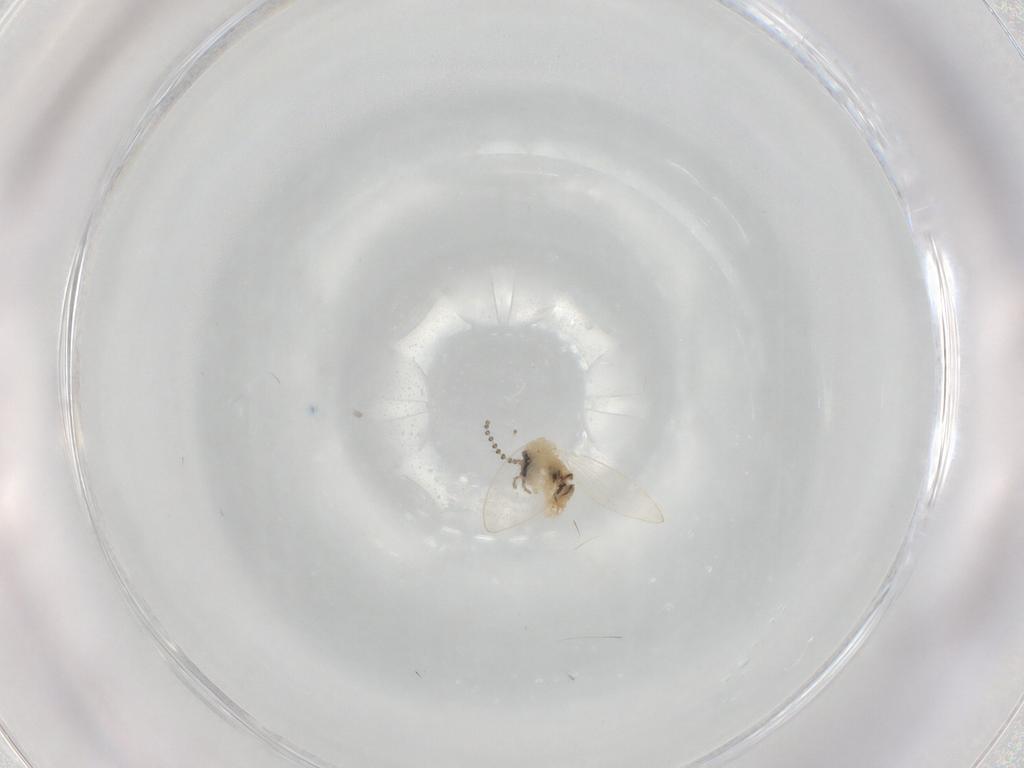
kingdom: Animalia
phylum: Arthropoda
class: Insecta
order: Diptera
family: Psychodidae
